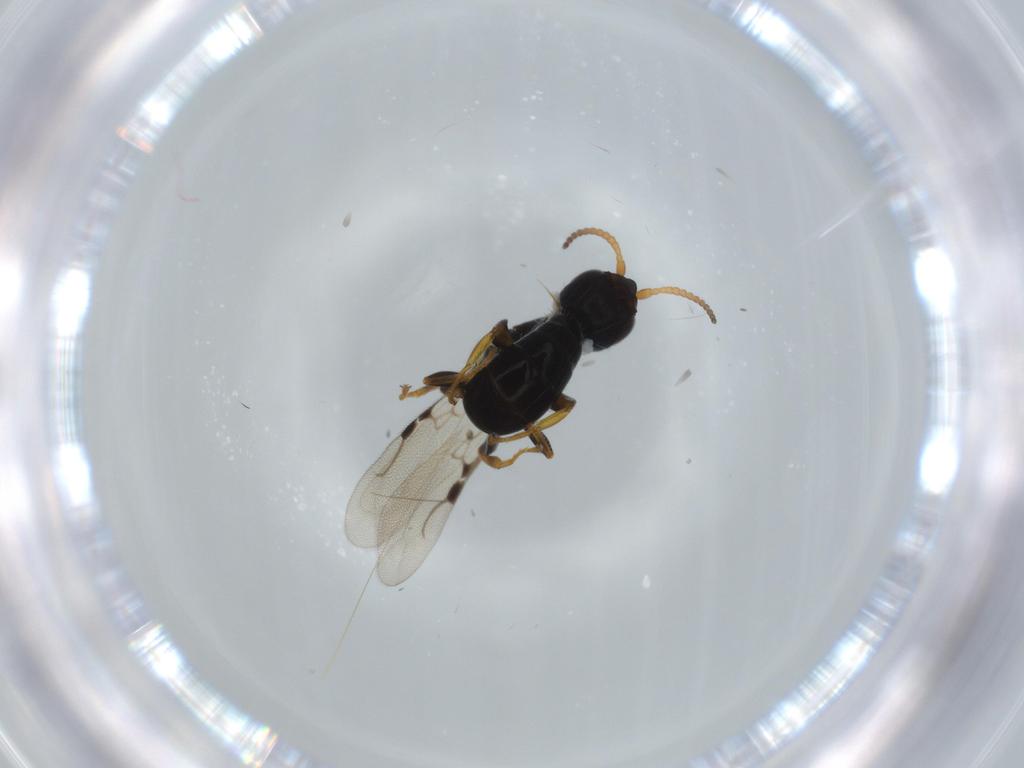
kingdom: Animalia
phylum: Arthropoda
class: Insecta
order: Hymenoptera
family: Bethylidae
